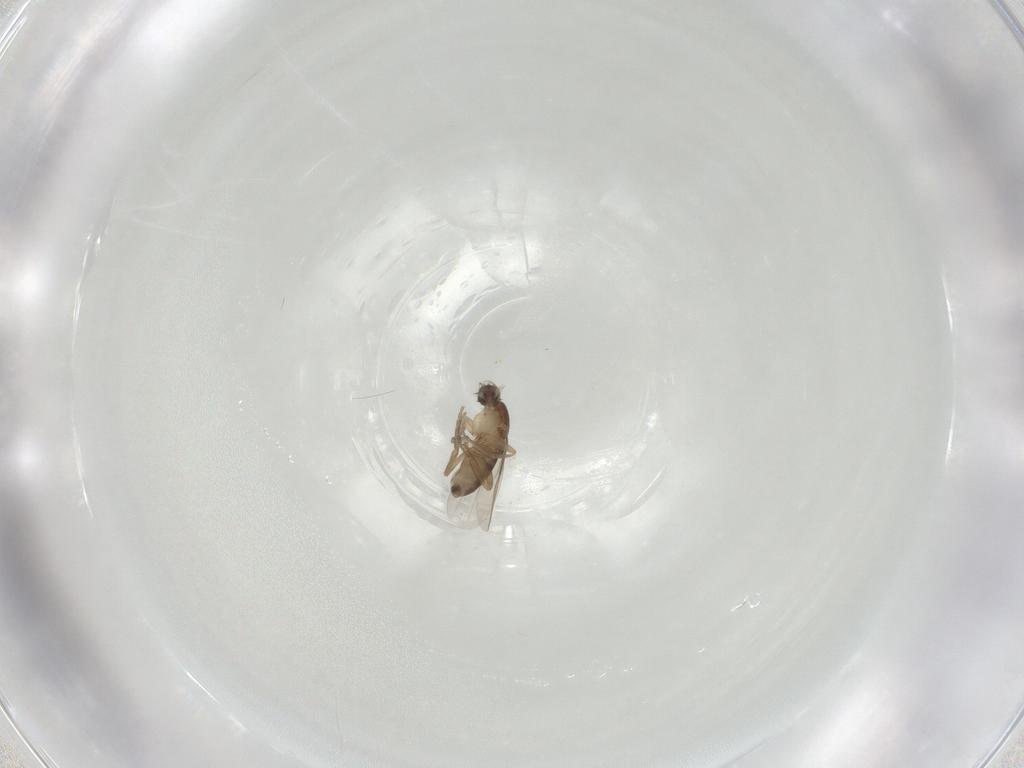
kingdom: Animalia
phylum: Arthropoda
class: Insecta
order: Diptera
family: Phoridae
